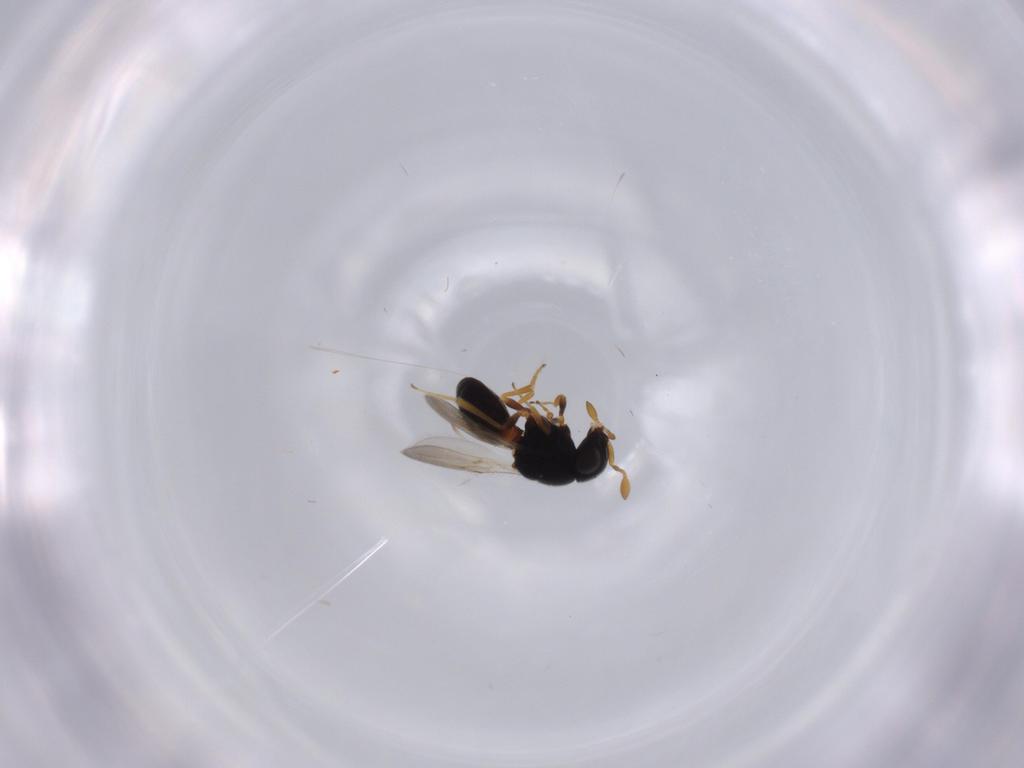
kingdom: Animalia
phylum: Arthropoda
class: Insecta
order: Hymenoptera
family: Scelionidae
